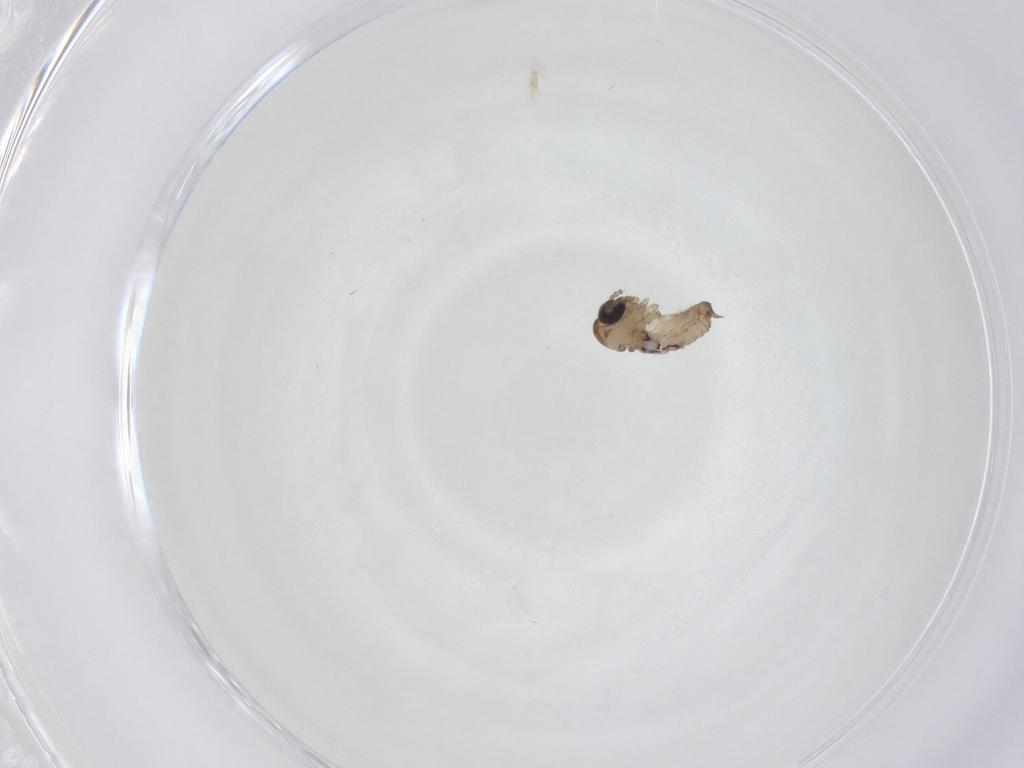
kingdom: Animalia
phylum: Arthropoda
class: Insecta
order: Diptera
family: Psychodidae
